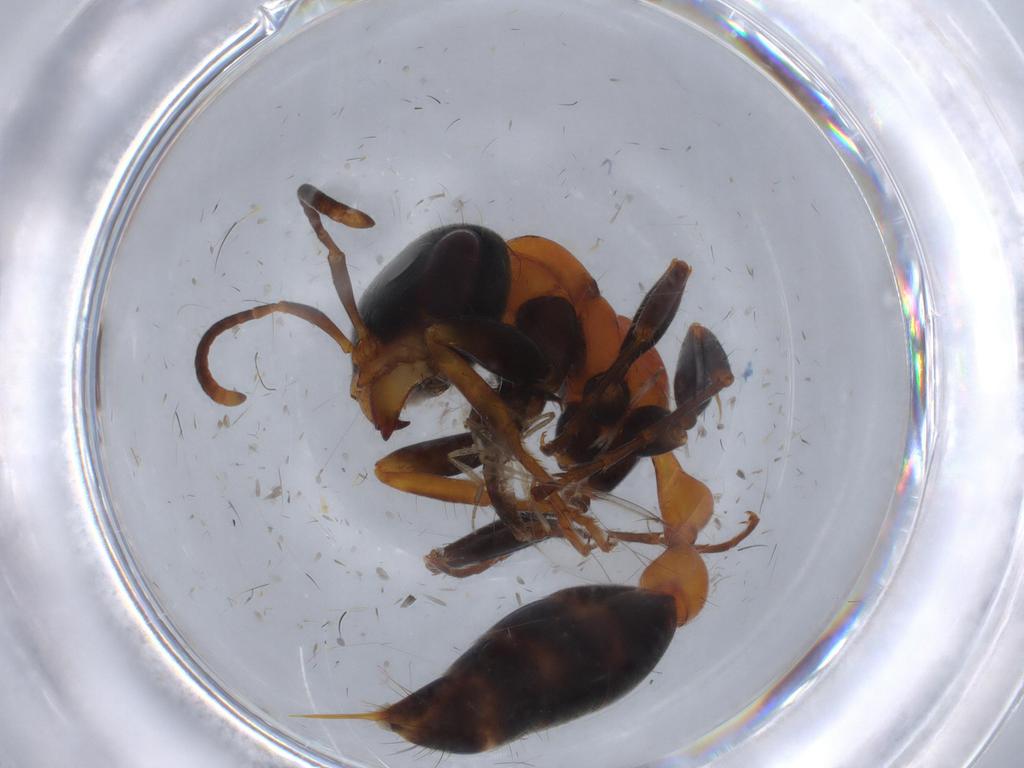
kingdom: Animalia
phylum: Arthropoda
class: Insecta
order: Hymenoptera
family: Formicidae
